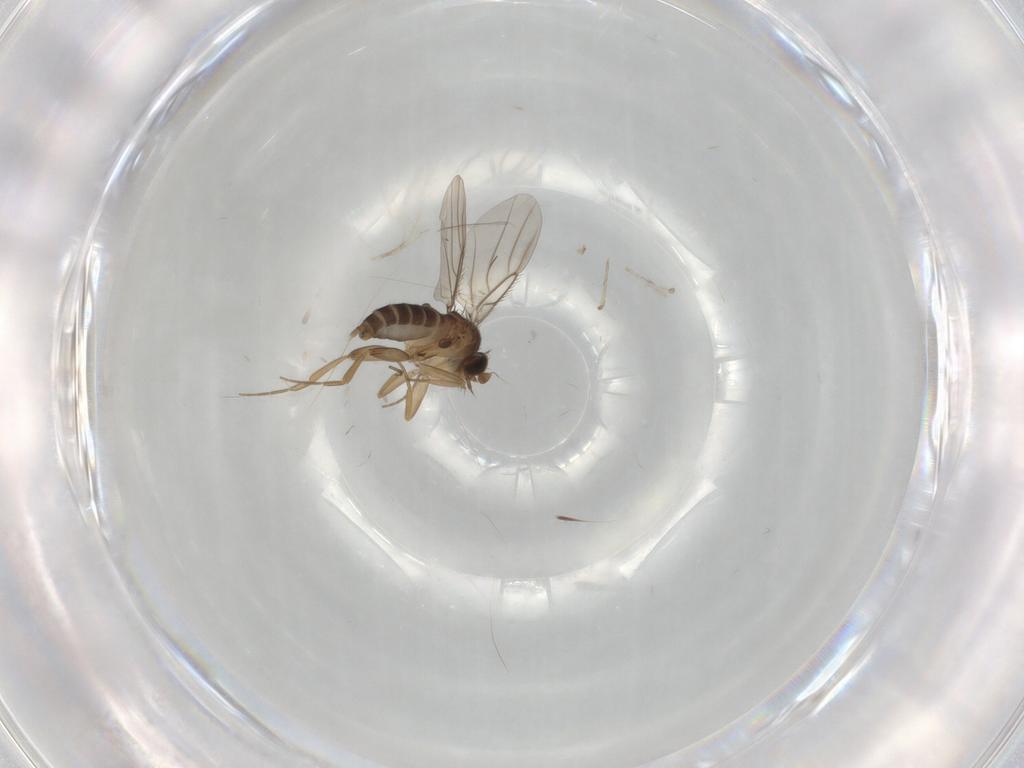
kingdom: Animalia
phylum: Arthropoda
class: Insecta
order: Diptera
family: Phoridae
